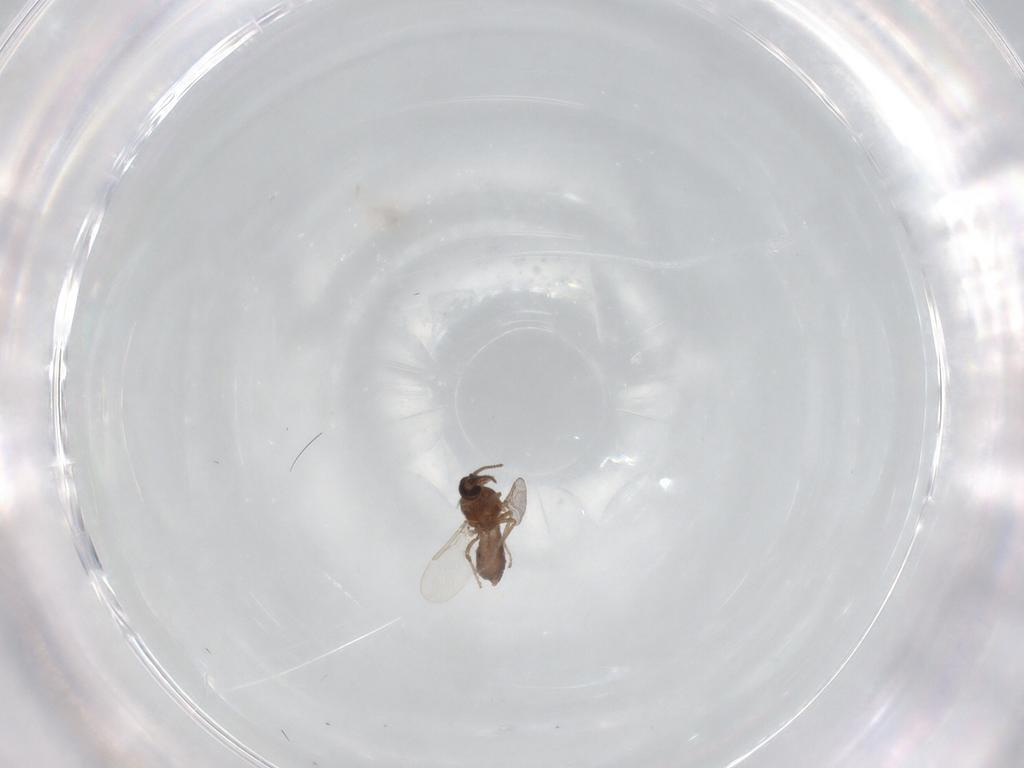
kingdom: Animalia
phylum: Arthropoda
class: Insecta
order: Diptera
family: Ceratopogonidae
